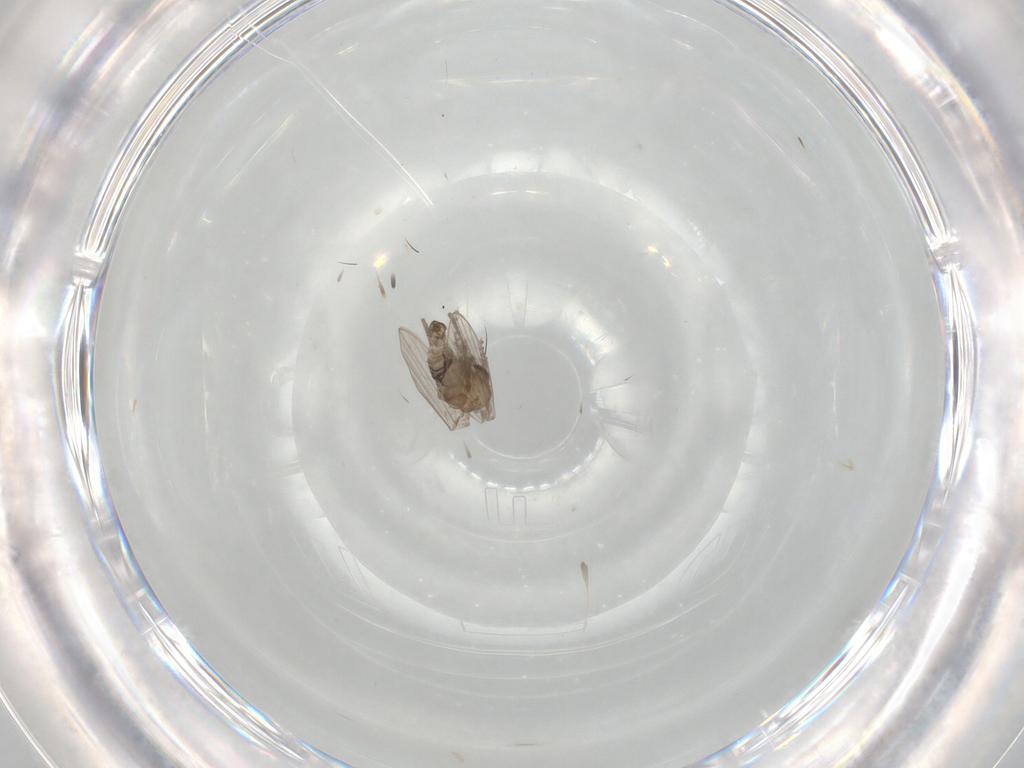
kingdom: Animalia
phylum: Arthropoda
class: Insecta
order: Diptera
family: Psychodidae
